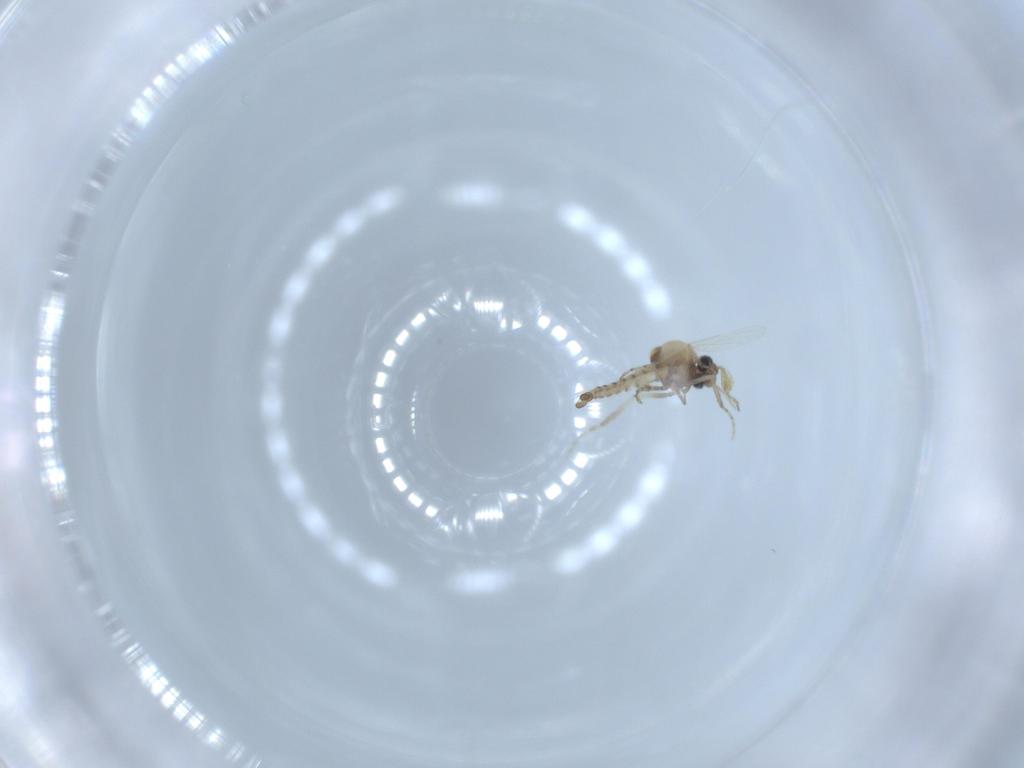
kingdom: Animalia
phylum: Arthropoda
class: Insecta
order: Diptera
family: Ceratopogonidae
